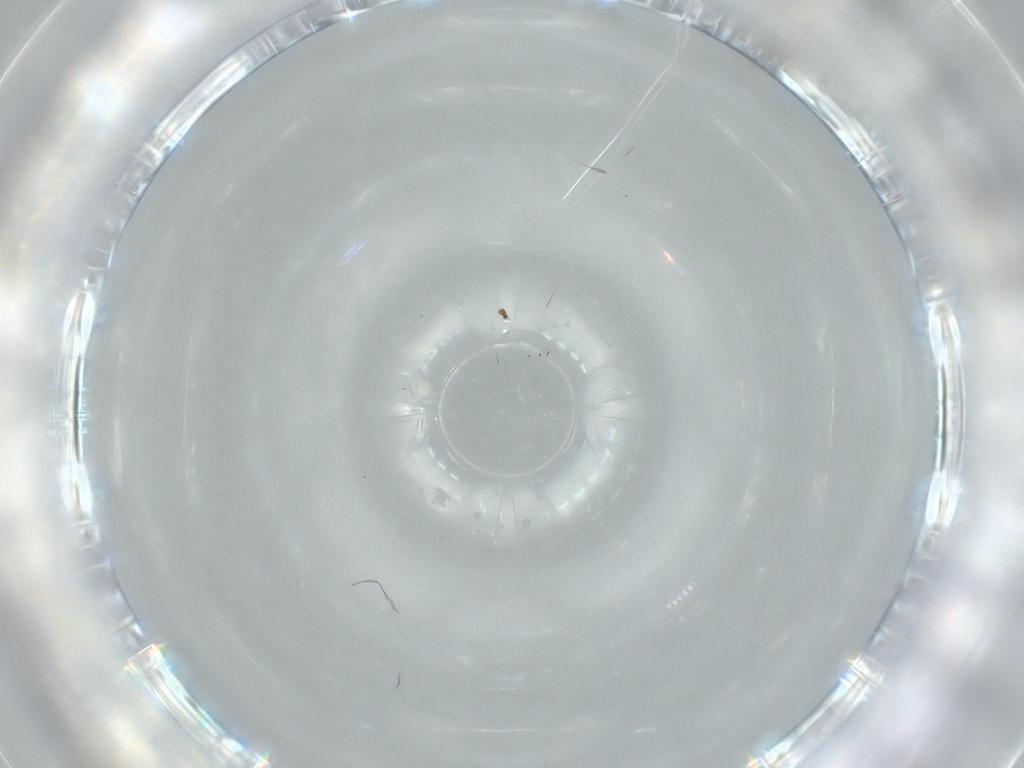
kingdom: Animalia
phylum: Arthropoda
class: Insecta
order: Diptera
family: Cecidomyiidae
